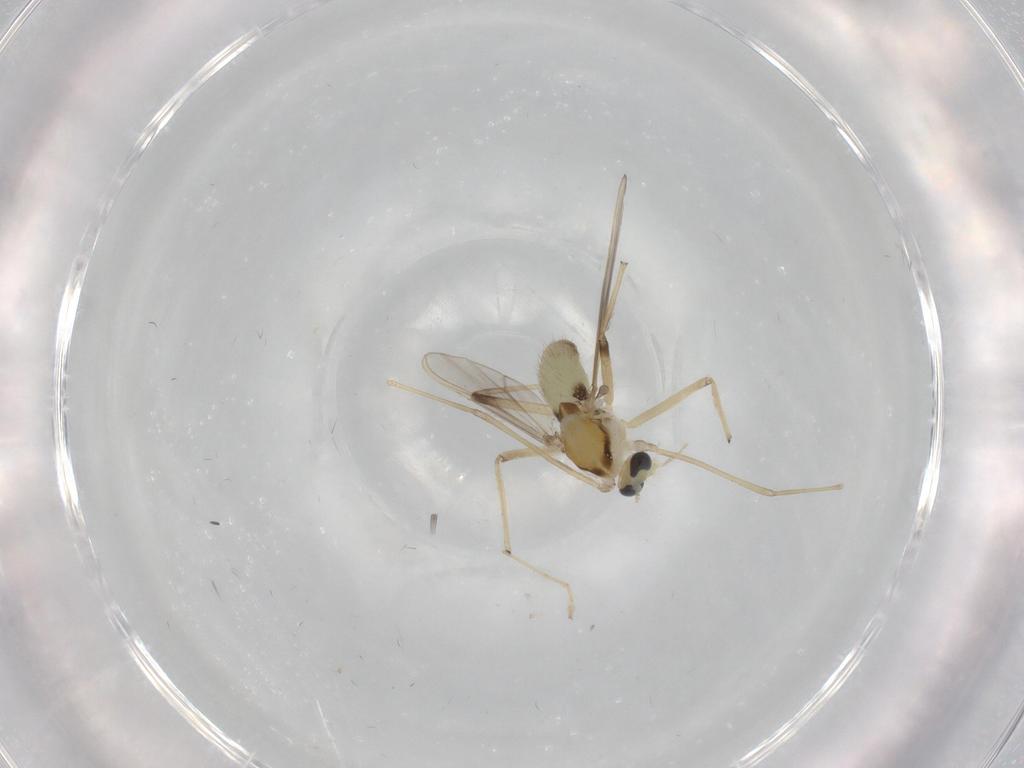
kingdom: Animalia
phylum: Arthropoda
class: Insecta
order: Diptera
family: Chironomidae
